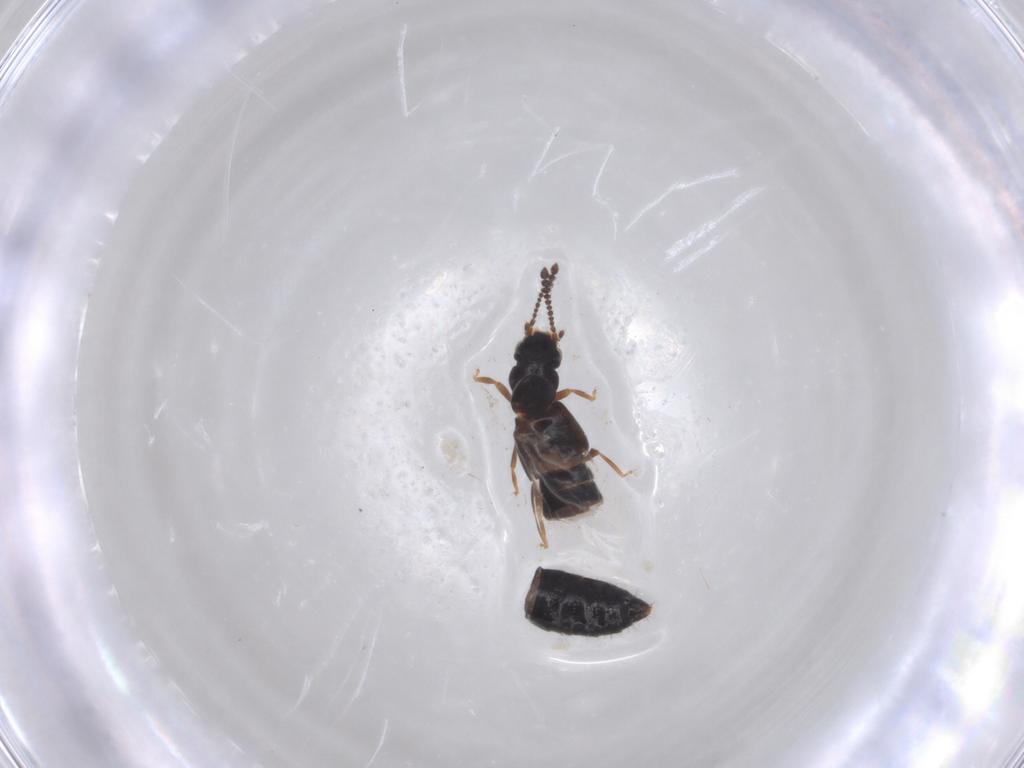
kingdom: Animalia
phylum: Arthropoda
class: Insecta
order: Coleoptera
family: Staphylinidae
